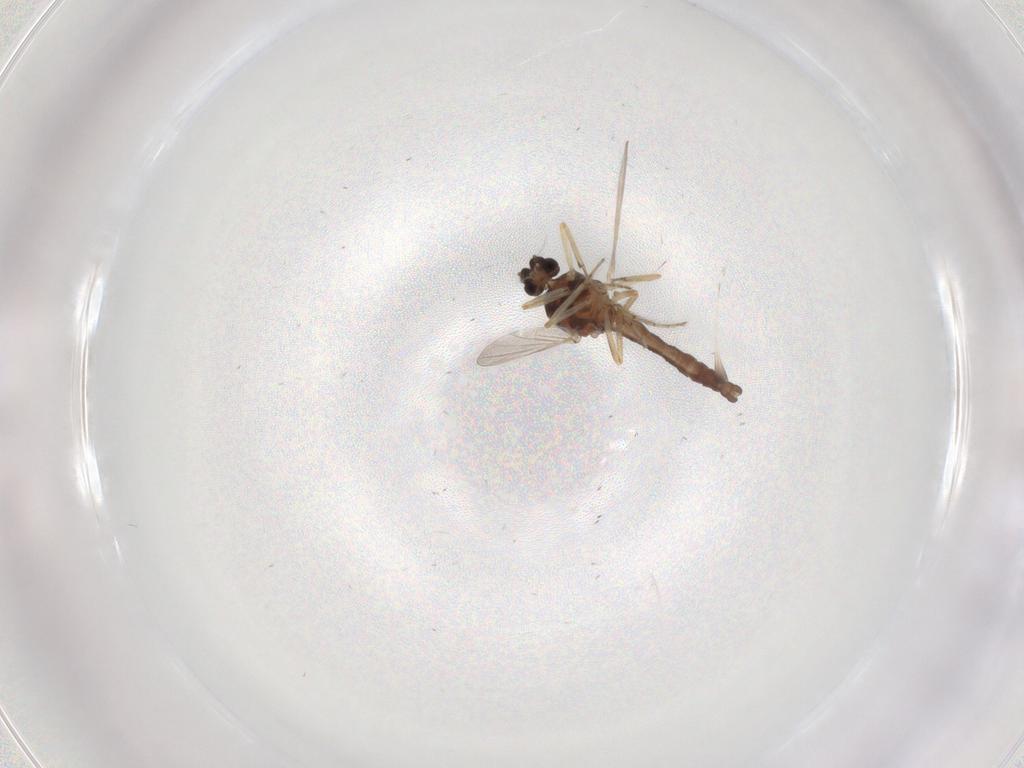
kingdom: Animalia
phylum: Arthropoda
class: Insecta
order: Diptera
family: Ceratopogonidae
